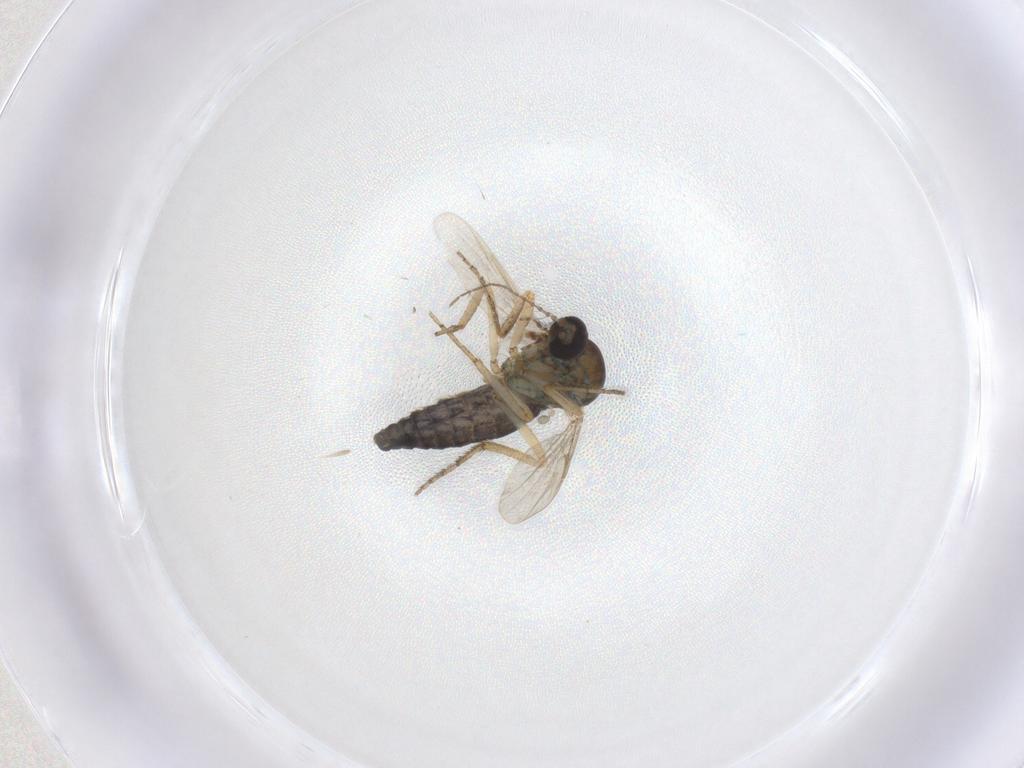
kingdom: Animalia
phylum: Arthropoda
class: Insecta
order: Diptera
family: Ceratopogonidae
